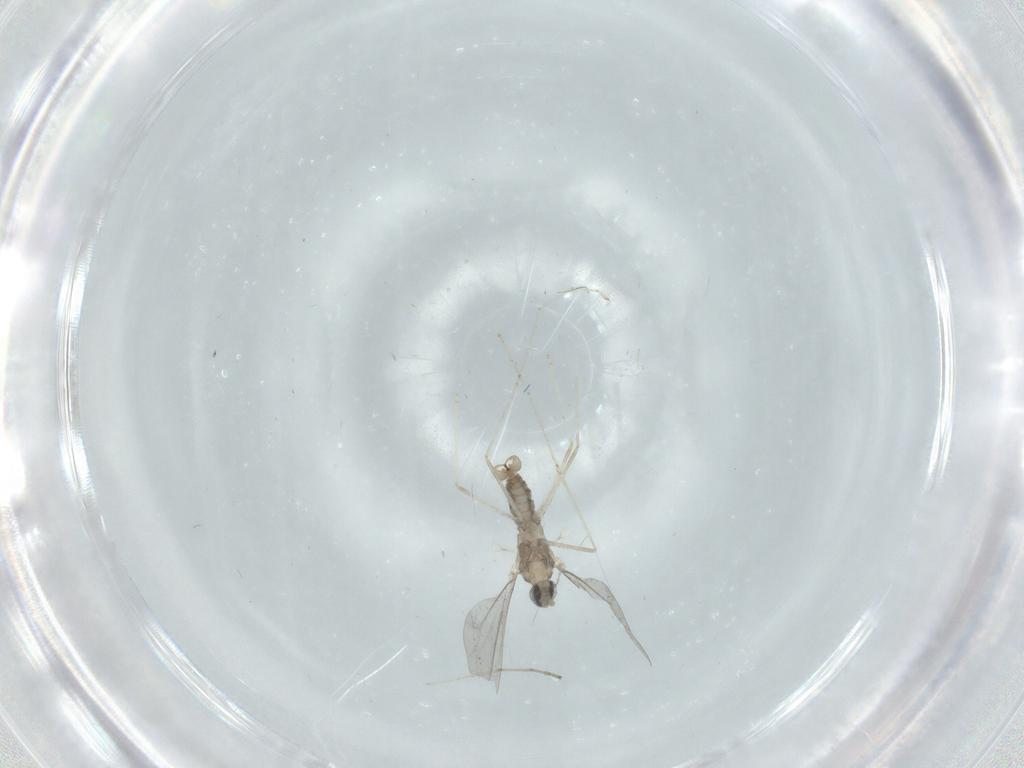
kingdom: Animalia
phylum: Arthropoda
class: Insecta
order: Diptera
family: Cecidomyiidae
